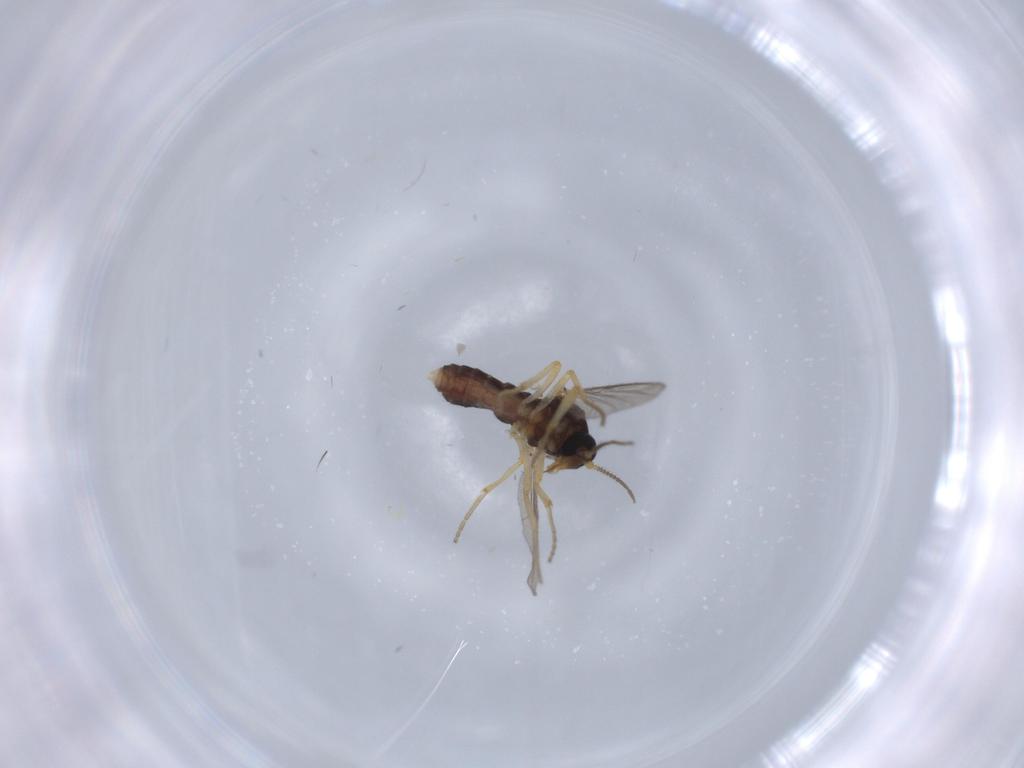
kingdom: Animalia
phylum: Arthropoda
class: Insecta
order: Diptera
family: Ceratopogonidae
